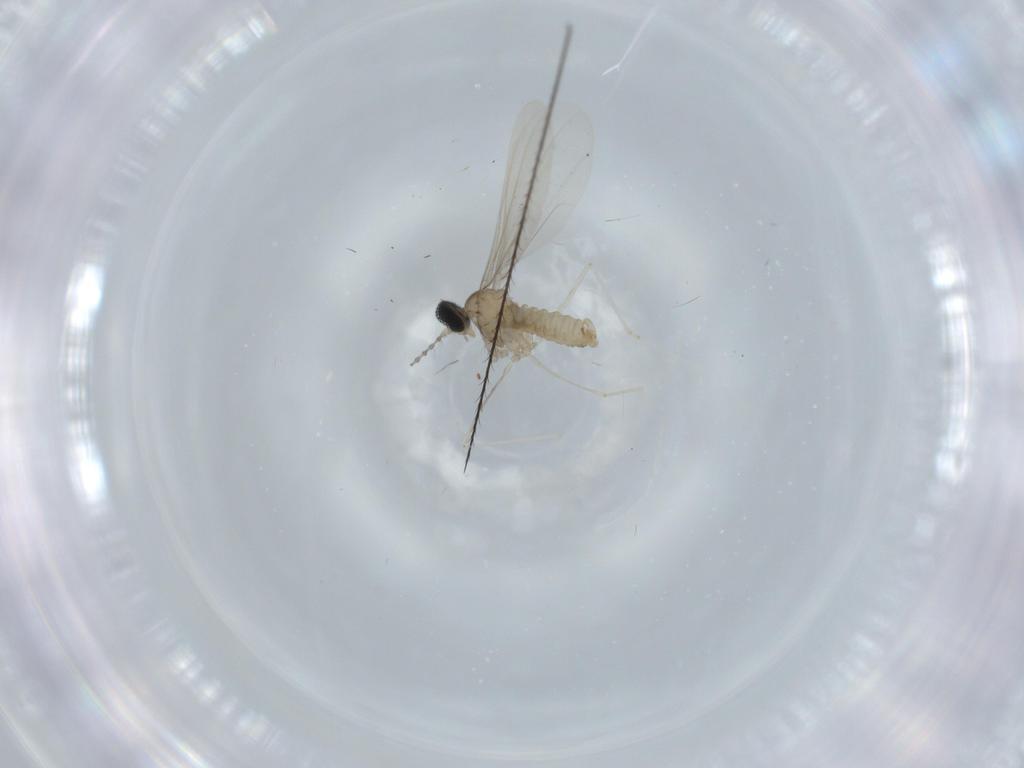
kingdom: Animalia
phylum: Arthropoda
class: Insecta
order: Diptera
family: Cecidomyiidae
